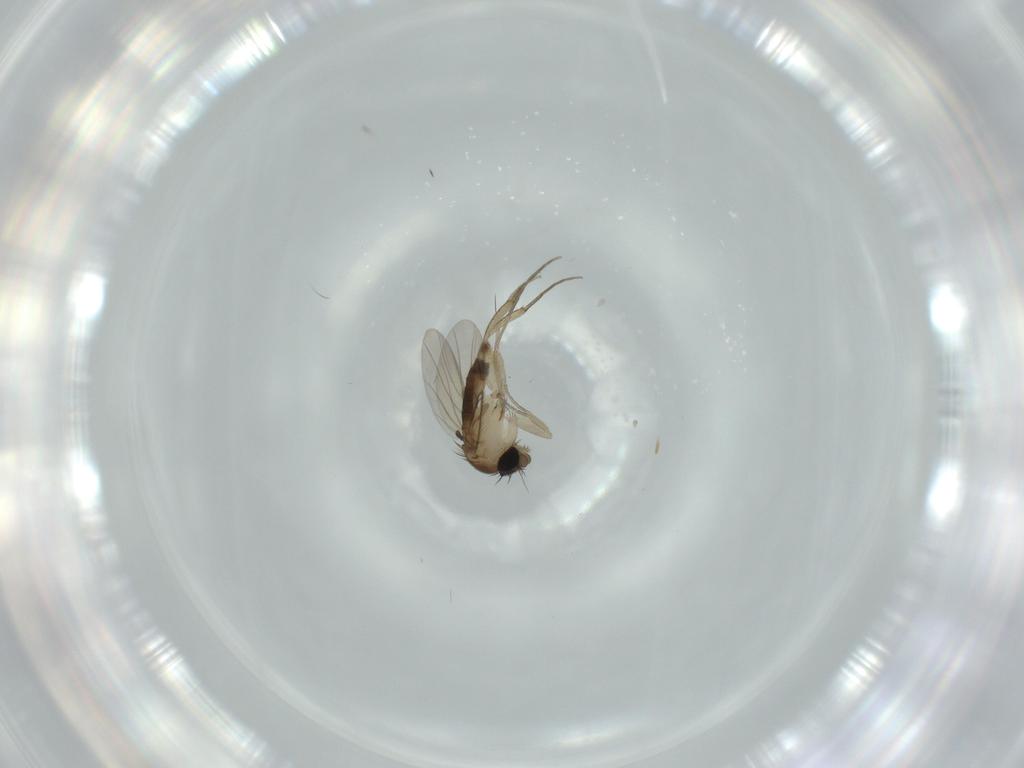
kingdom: Animalia
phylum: Arthropoda
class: Insecta
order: Diptera
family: Phoridae
